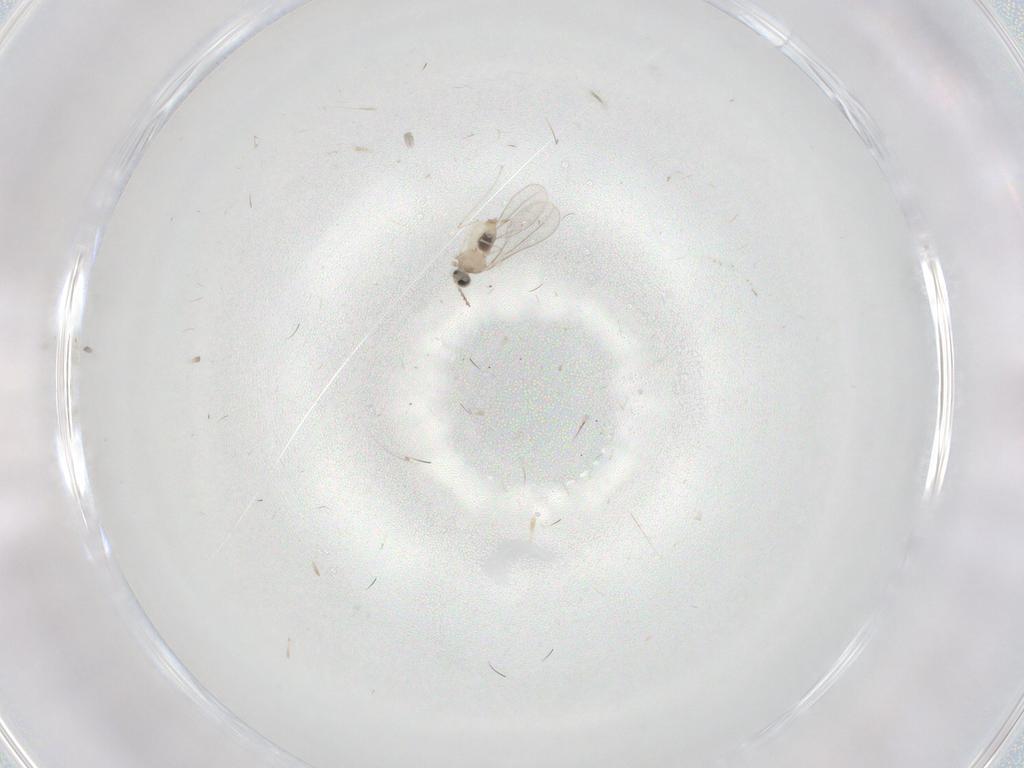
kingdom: Animalia
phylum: Arthropoda
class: Insecta
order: Diptera
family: Cecidomyiidae
